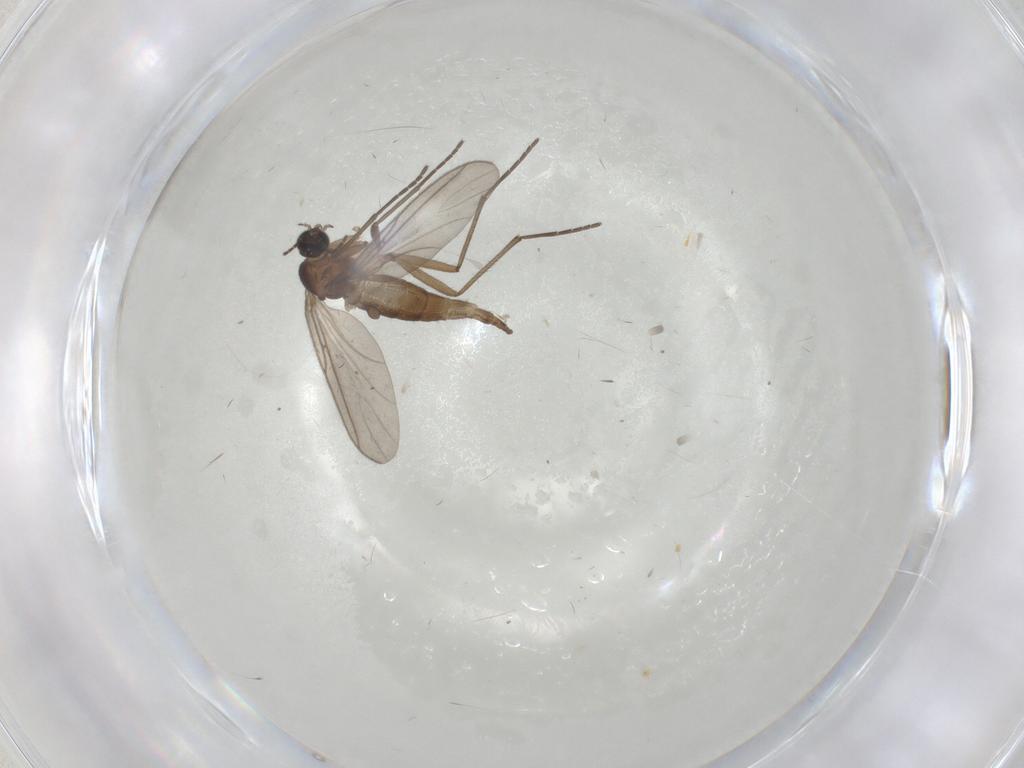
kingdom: Animalia
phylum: Arthropoda
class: Insecta
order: Diptera
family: Sciaridae
